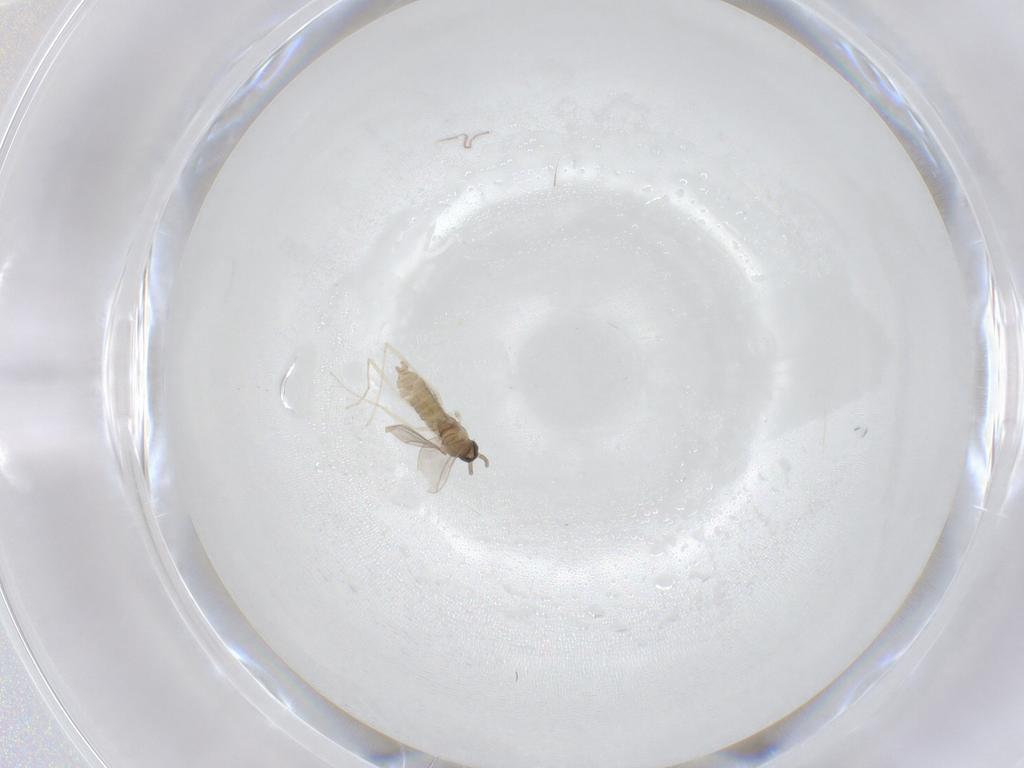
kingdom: Animalia
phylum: Arthropoda
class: Insecta
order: Diptera
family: Cecidomyiidae
